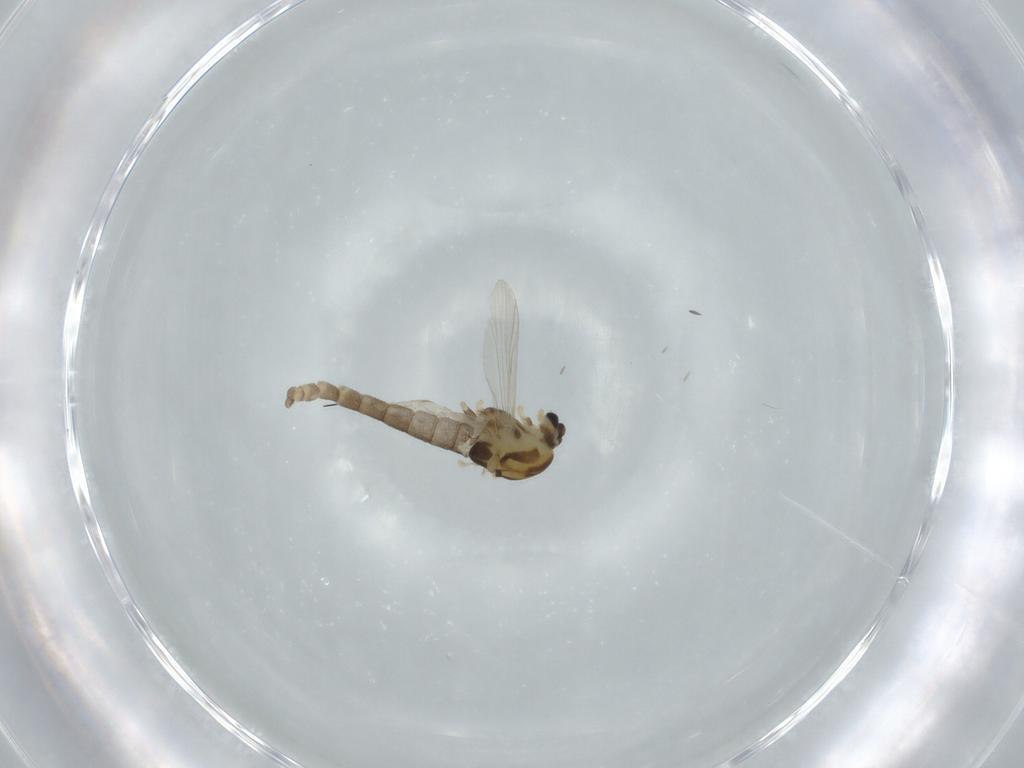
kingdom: Animalia
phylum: Arthropoda
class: Insecta
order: Diptera
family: Chironomidae
